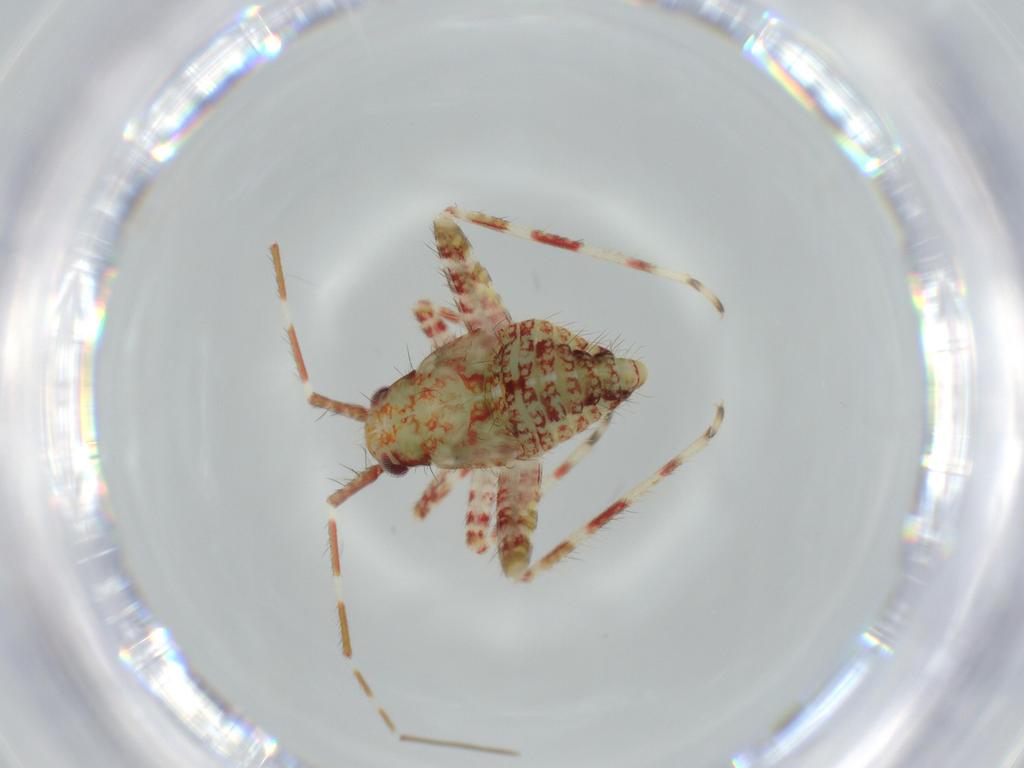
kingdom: Animalia
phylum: Arthropoda
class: Insecta
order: Hemiptera
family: Miridae
